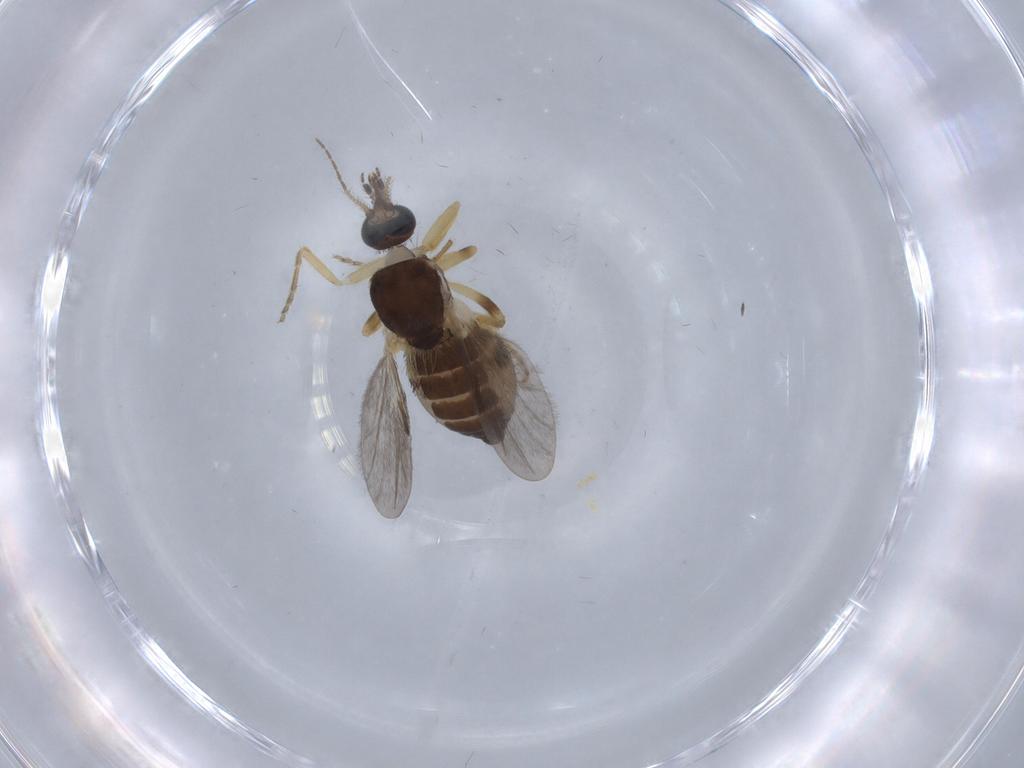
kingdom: Animalia
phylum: Arthropoda
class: Insecta
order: Diptera
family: Ceratopogonidae
